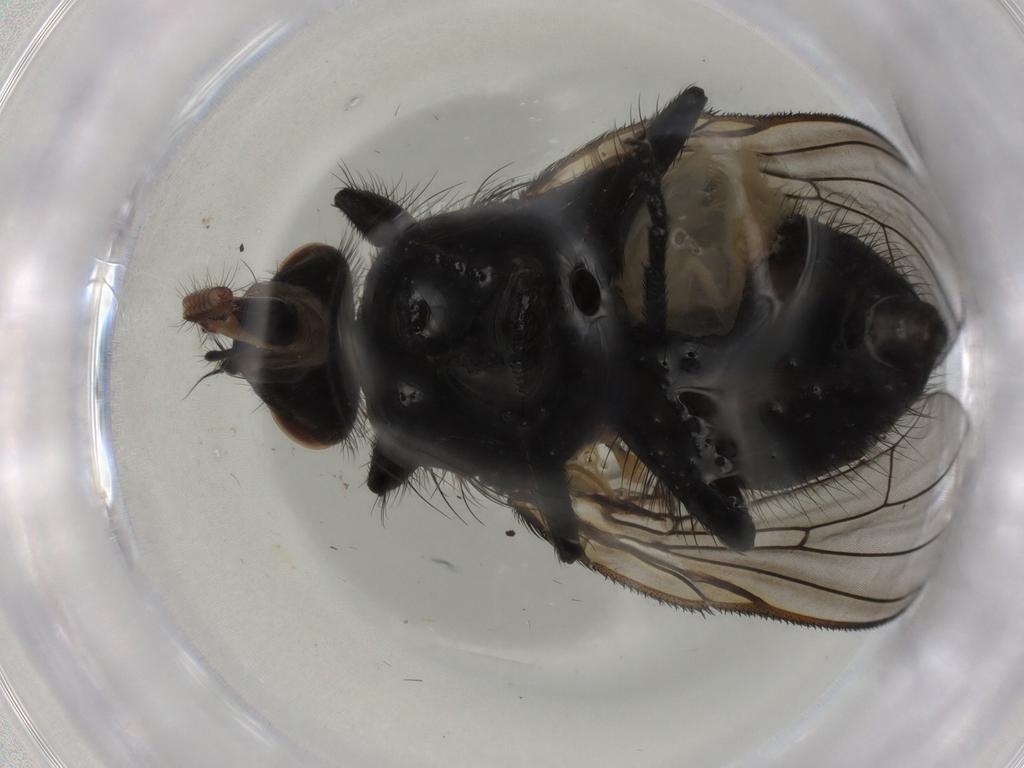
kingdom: Animalia
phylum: Arthropoda
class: Insecta
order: Diptera
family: Muscidae
